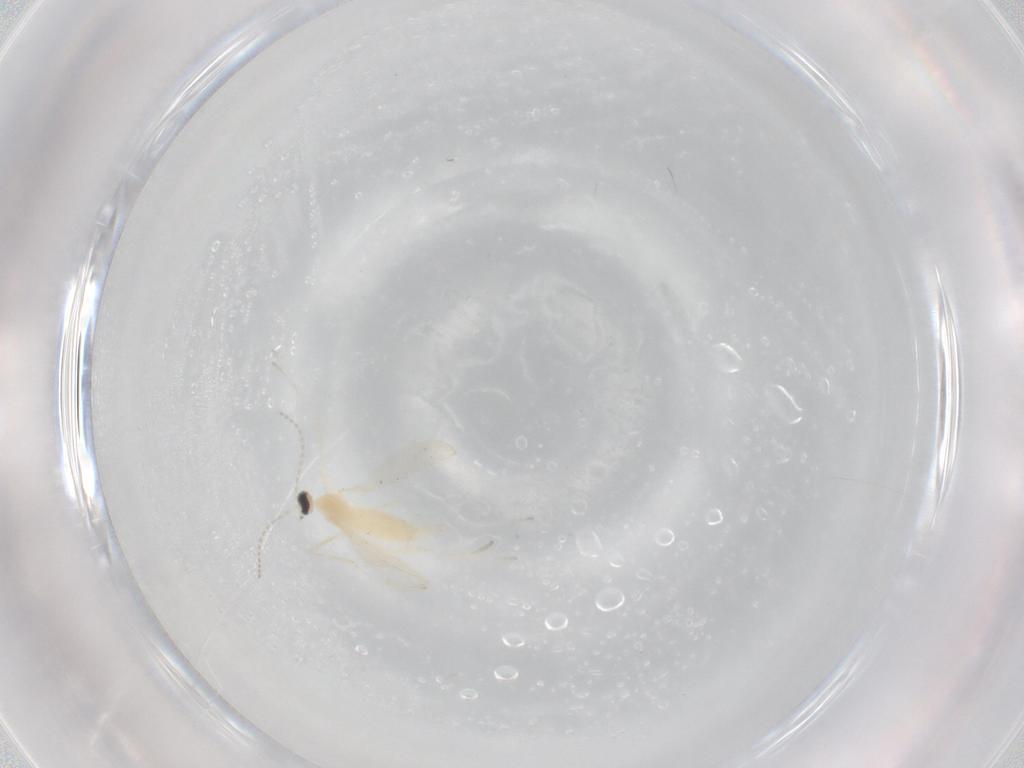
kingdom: Animalia
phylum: Arthropoda
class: Insecta
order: Diptera
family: Cecidomyiidae
